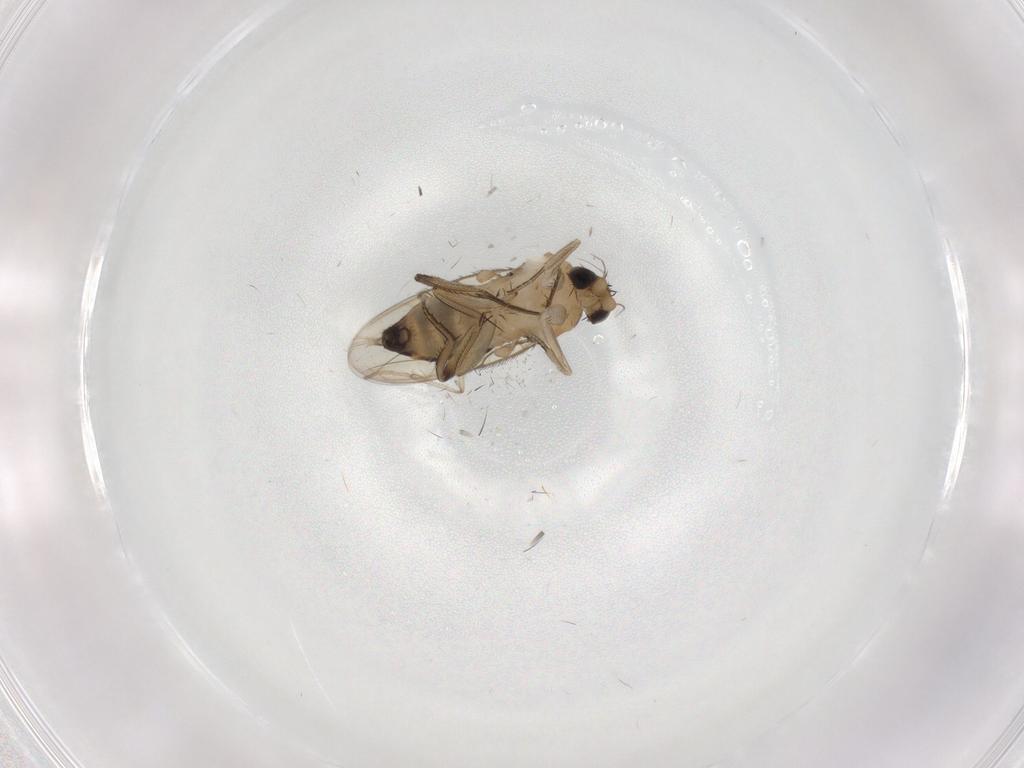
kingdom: Animalia
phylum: Arthropoda
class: Insecta
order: Diptera
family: Phoridae
